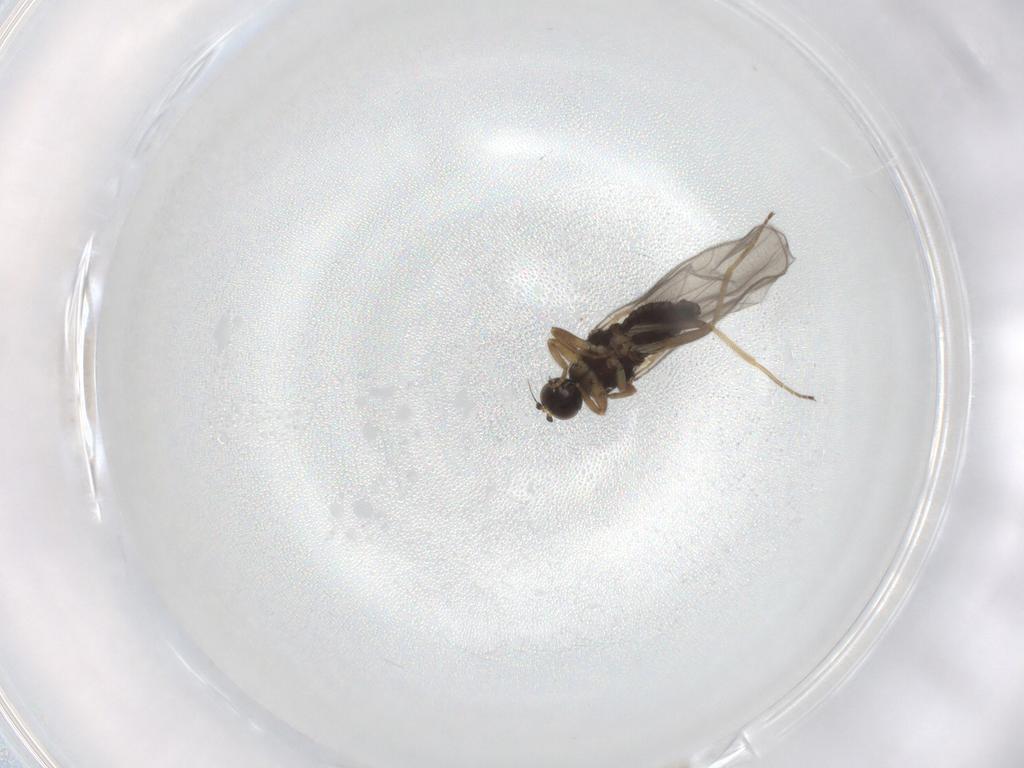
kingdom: Animalia
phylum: Arthropoda
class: Insecta
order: Diptera
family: Hybotidae
